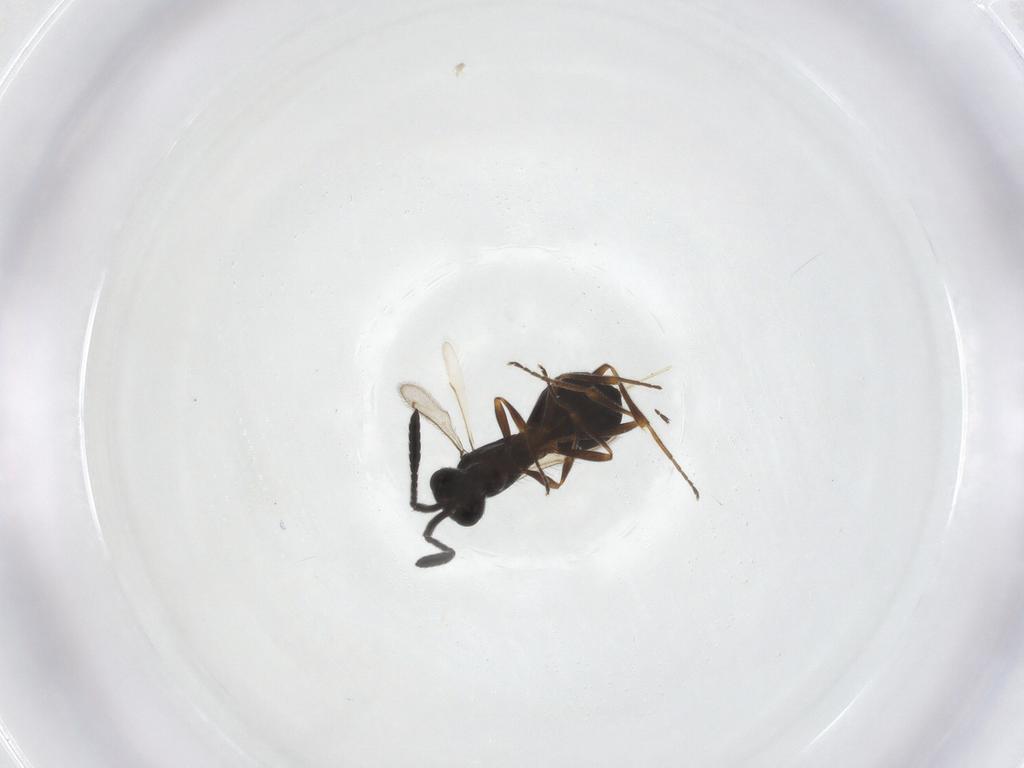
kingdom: Animalia
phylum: Arthropoda
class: Insecta
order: Hymenoptera
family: Scelionidae
